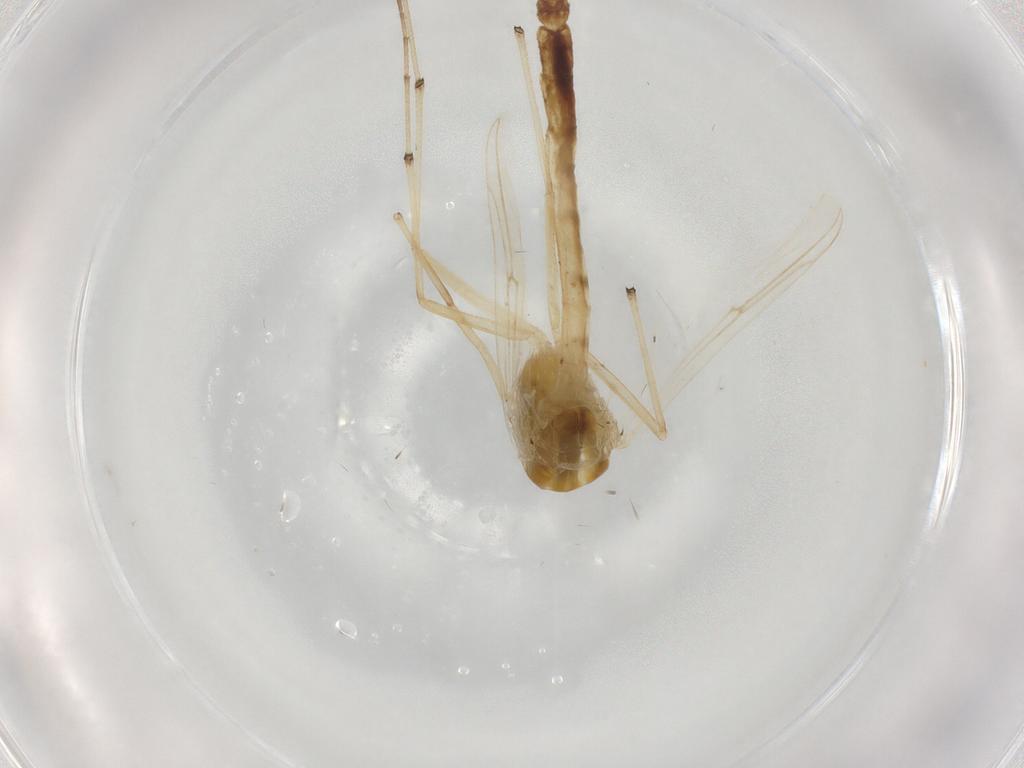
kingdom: Animalia
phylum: Arthropoda
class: Insecta
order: Diptera
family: Chironomidae
